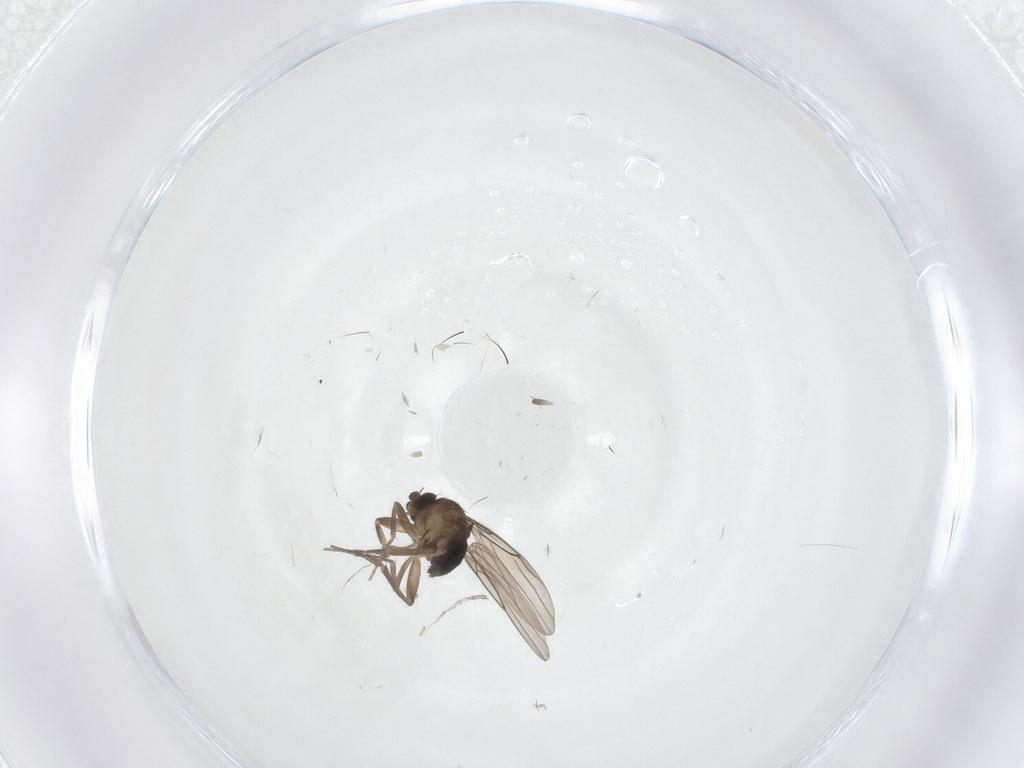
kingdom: Animalia
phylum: Arthropoda
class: Insecta
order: Diptera
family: Phoridae
